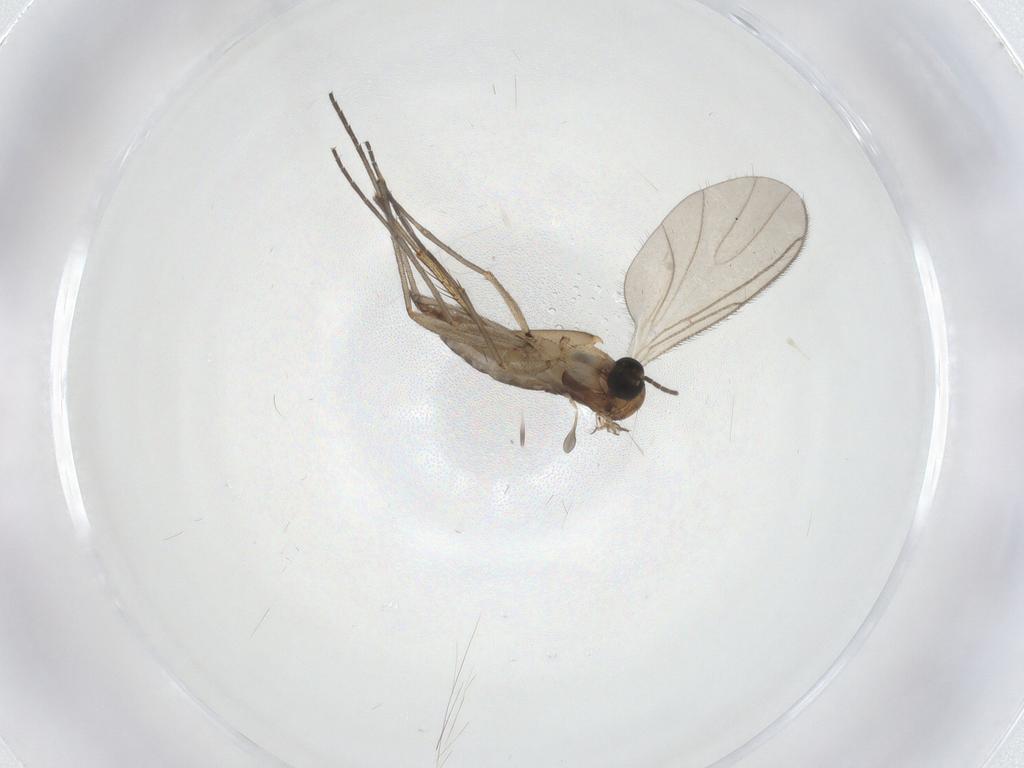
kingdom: Animalia
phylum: Arthropoda
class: Insecta
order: Diptera
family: Sciaridae
